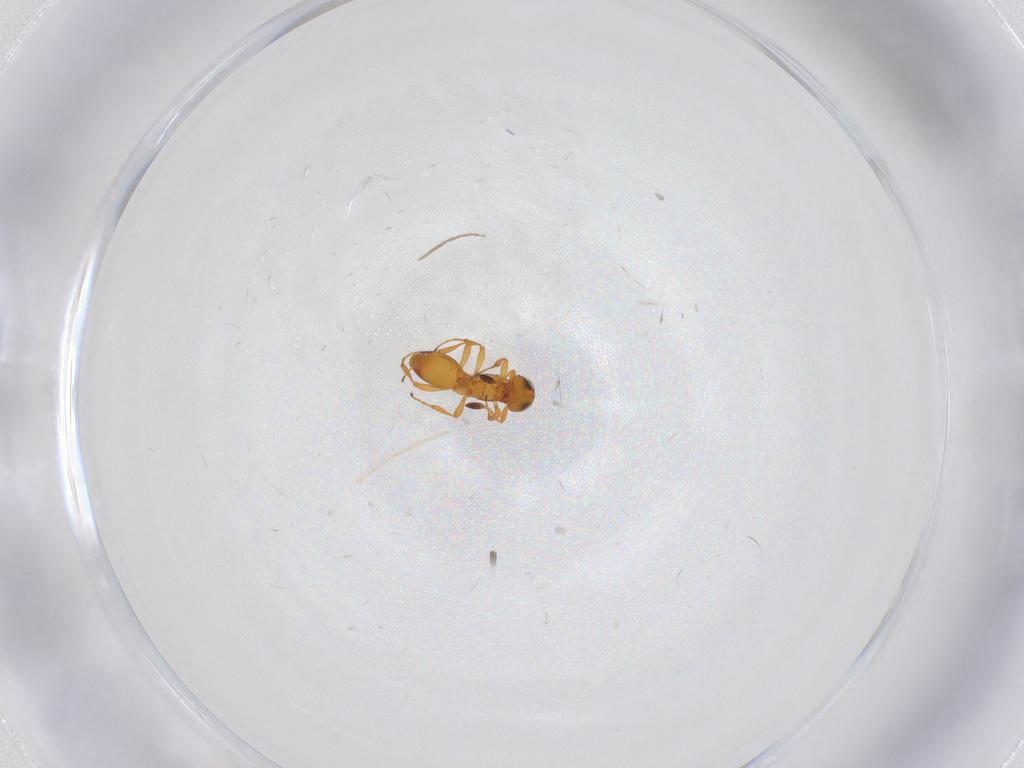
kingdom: Animalia
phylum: Arthropoda
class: Insecta
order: Hymenoptera
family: Platygastridae
